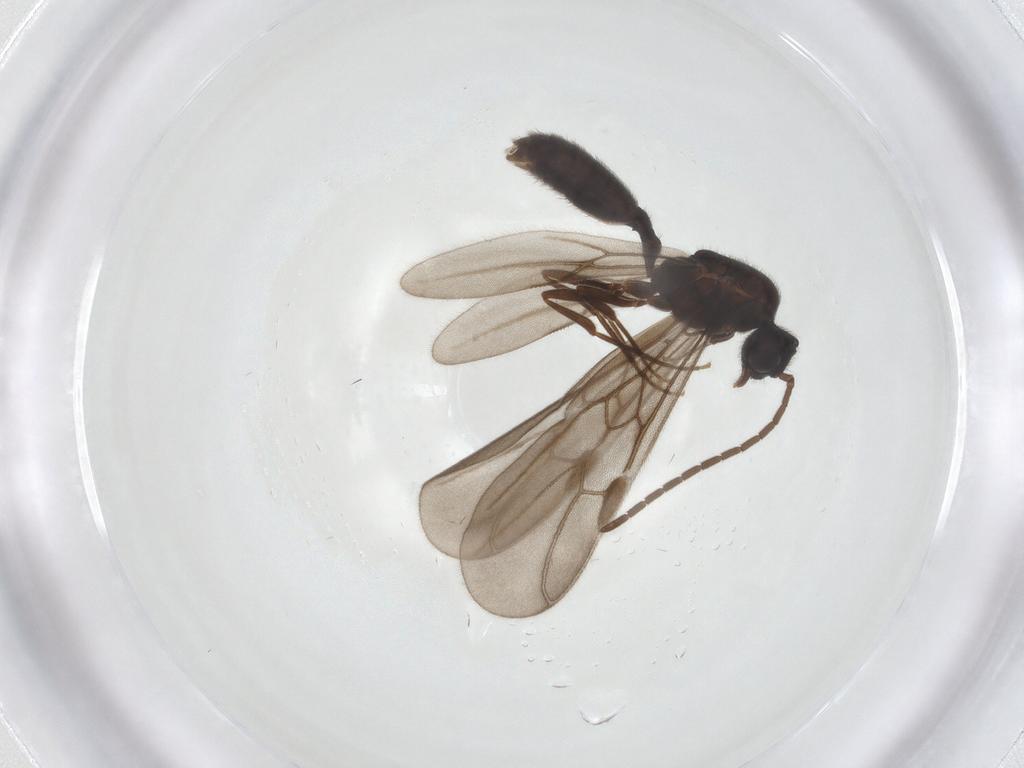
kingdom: Animalia
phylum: Arthropoda
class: Insecta
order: Hymenoptera
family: Formicidae
